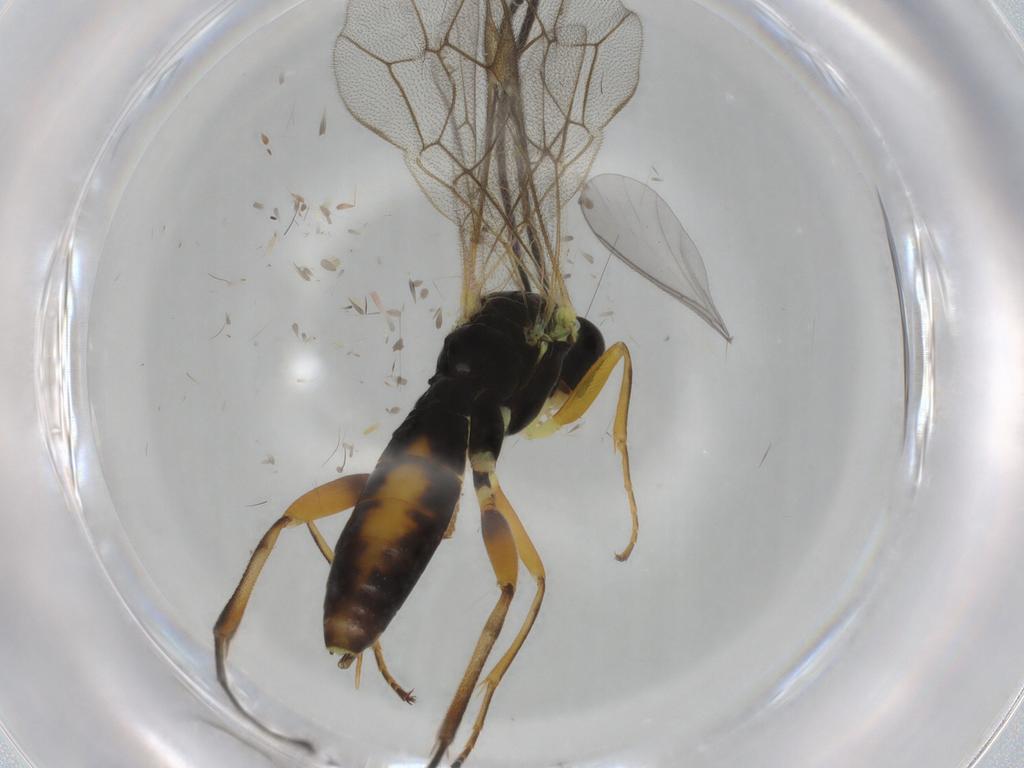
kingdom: Animalia
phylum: Arthropoda
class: Insecta
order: Hymenoptera
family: Ichneumonidae
